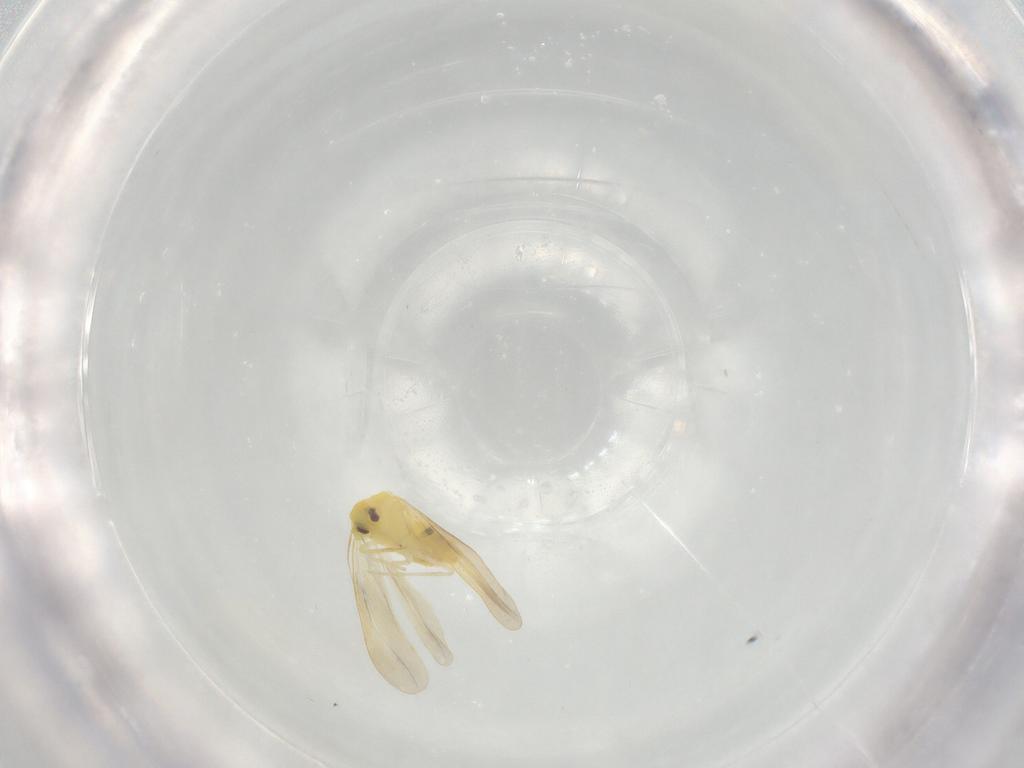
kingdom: Animalia
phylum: Arthropoda
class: Insecta
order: Hemiptera
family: Aleyrodidae
